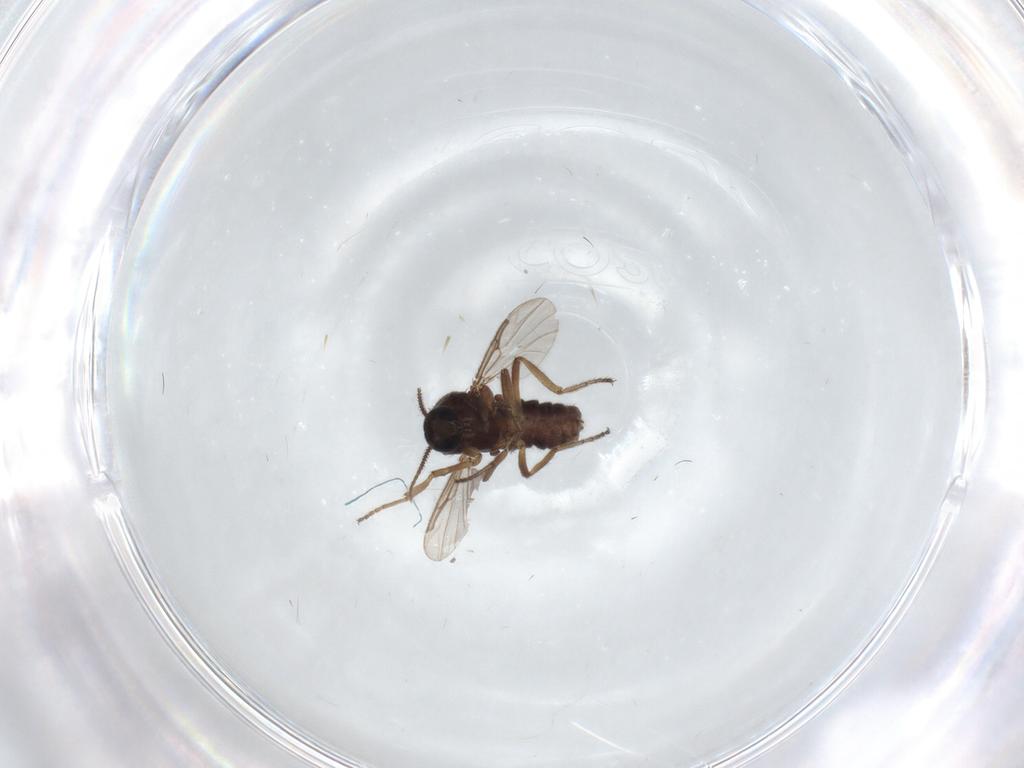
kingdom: Animalia
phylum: Arthropoda
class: Insecta
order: Diptera
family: Ceratopogonidae
